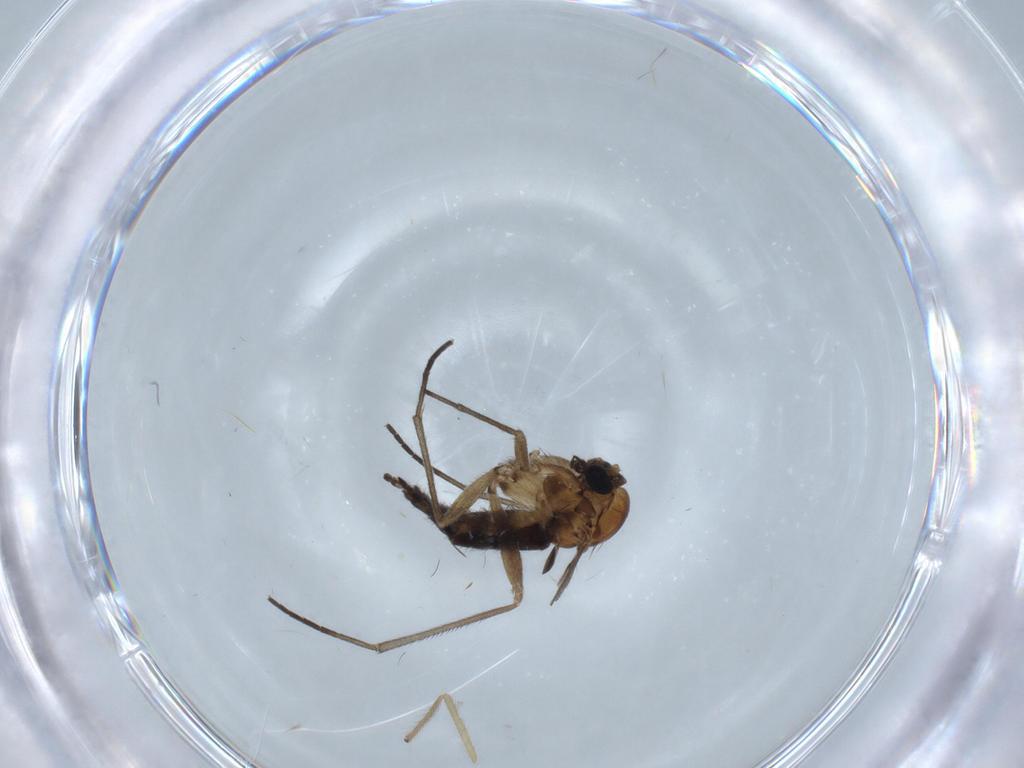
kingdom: Animalia
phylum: Arthropoda
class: Insecta
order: Diptera
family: Sciaridae
